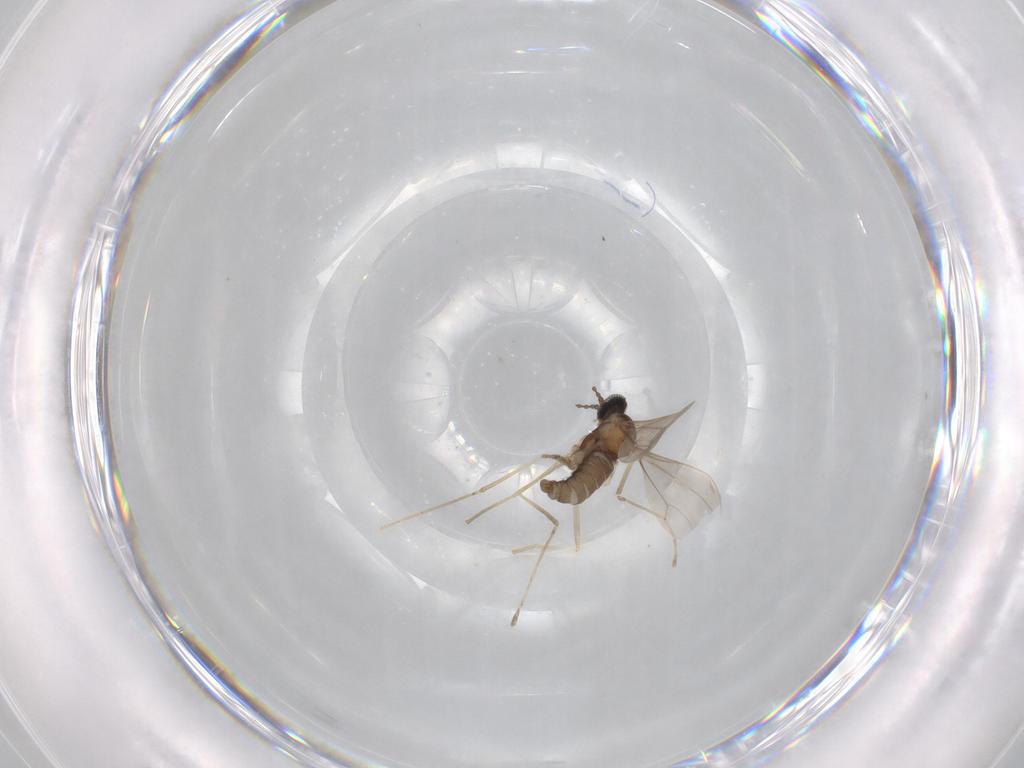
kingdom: Animalia
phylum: Arthropoda
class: Insecta
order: Diptera
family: Cecidomyiidae
